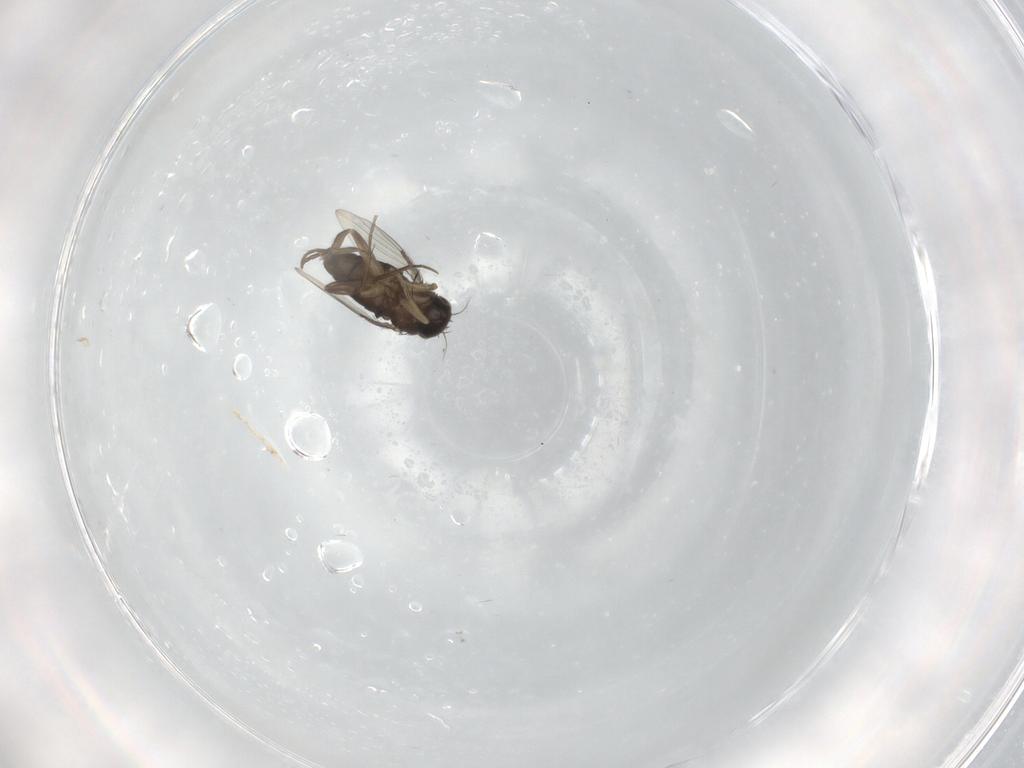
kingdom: Animalia
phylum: Arthropoda
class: Insecta
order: Diptera
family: Phoridae
